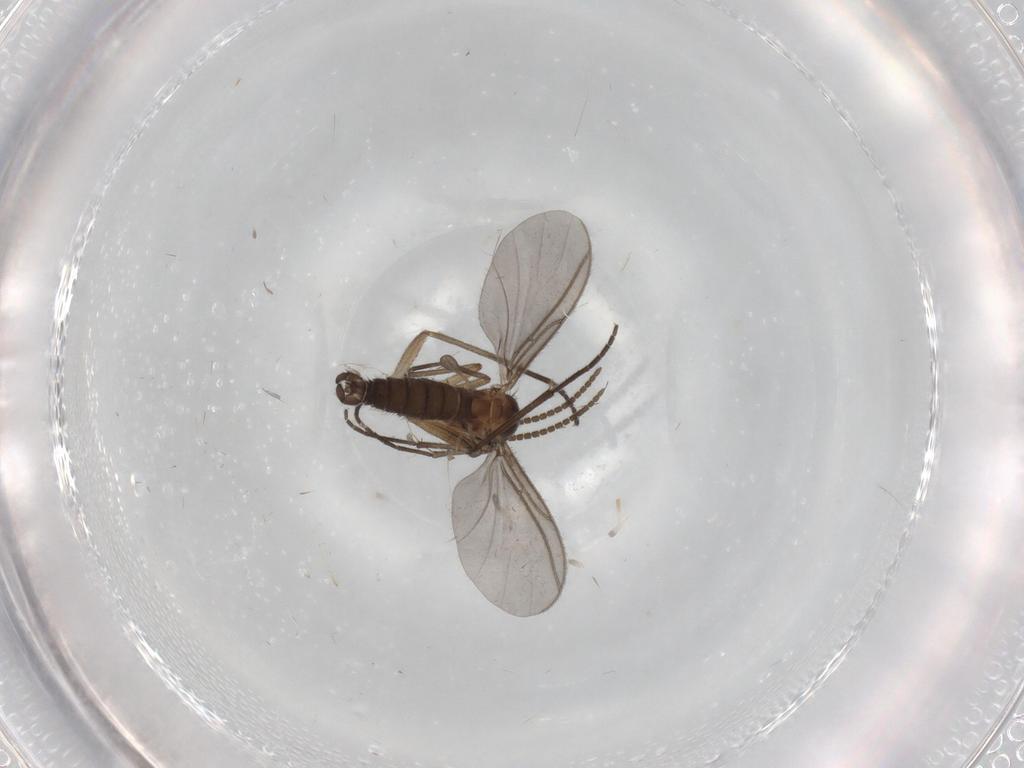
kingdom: Animalia
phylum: Arthropoda
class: Insecta
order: Diptera
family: Sciaridae
